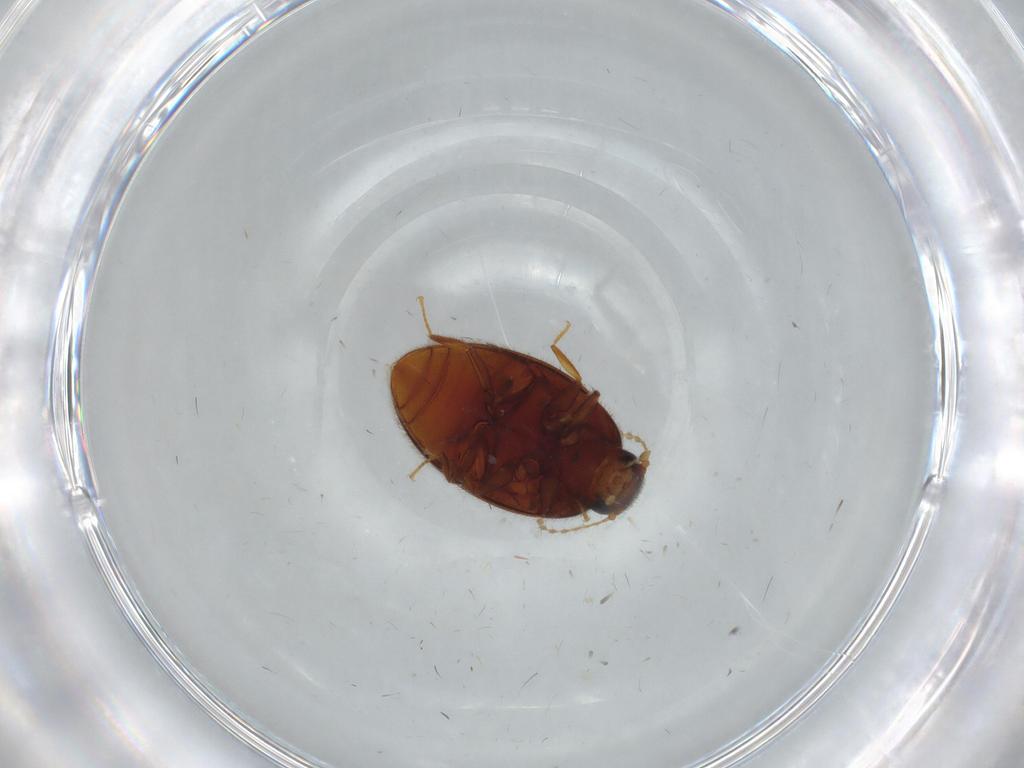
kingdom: Animalia
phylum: Arthropoda
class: Insecta
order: Coleoptera
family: Limnichidae
